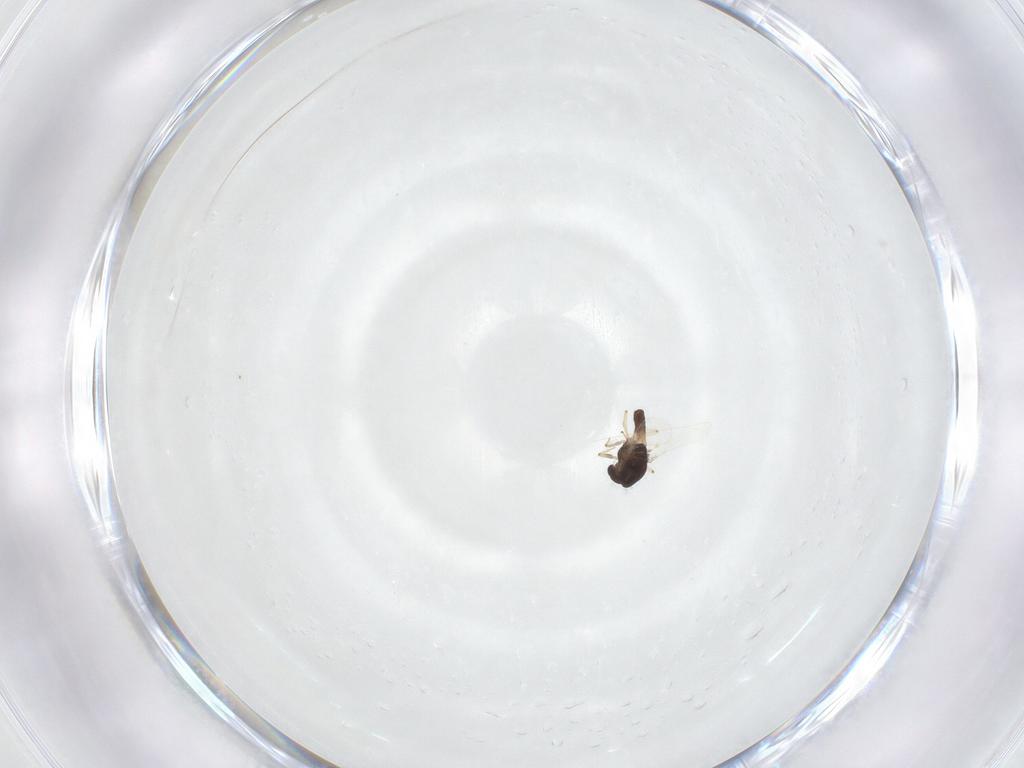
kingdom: Animalia
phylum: Arthropoda
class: Insecta
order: Diptera
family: Chironomidae
